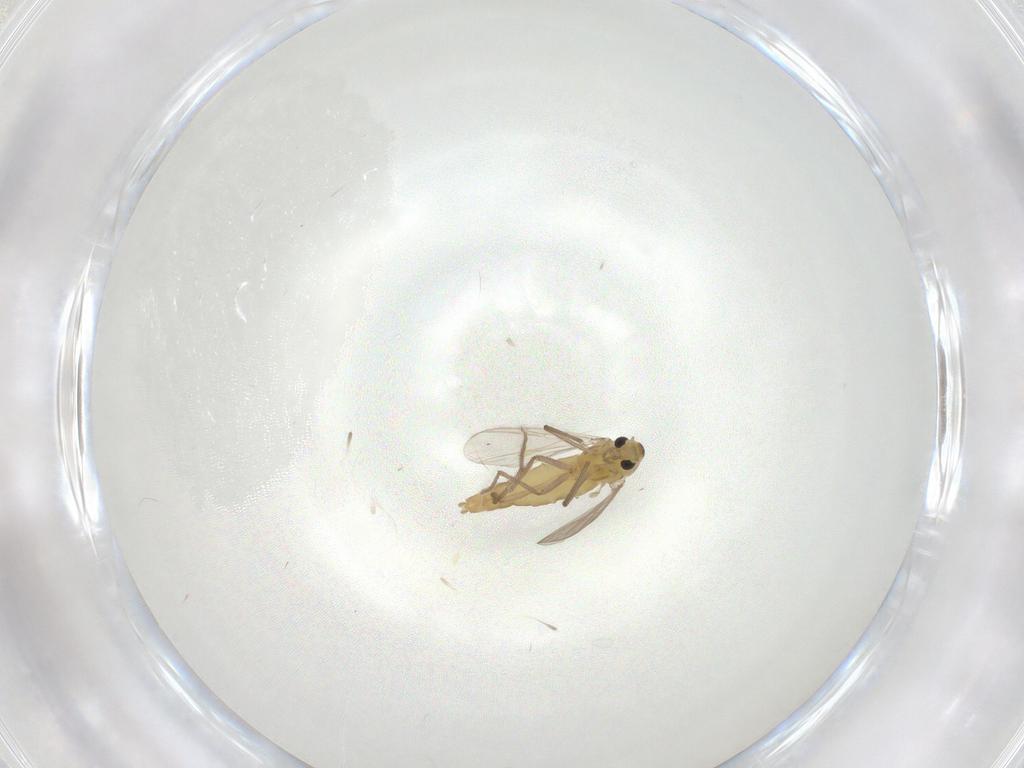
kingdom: Animalia
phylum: Arthropoda
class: Insecta
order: Diptera
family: Chironomidae
